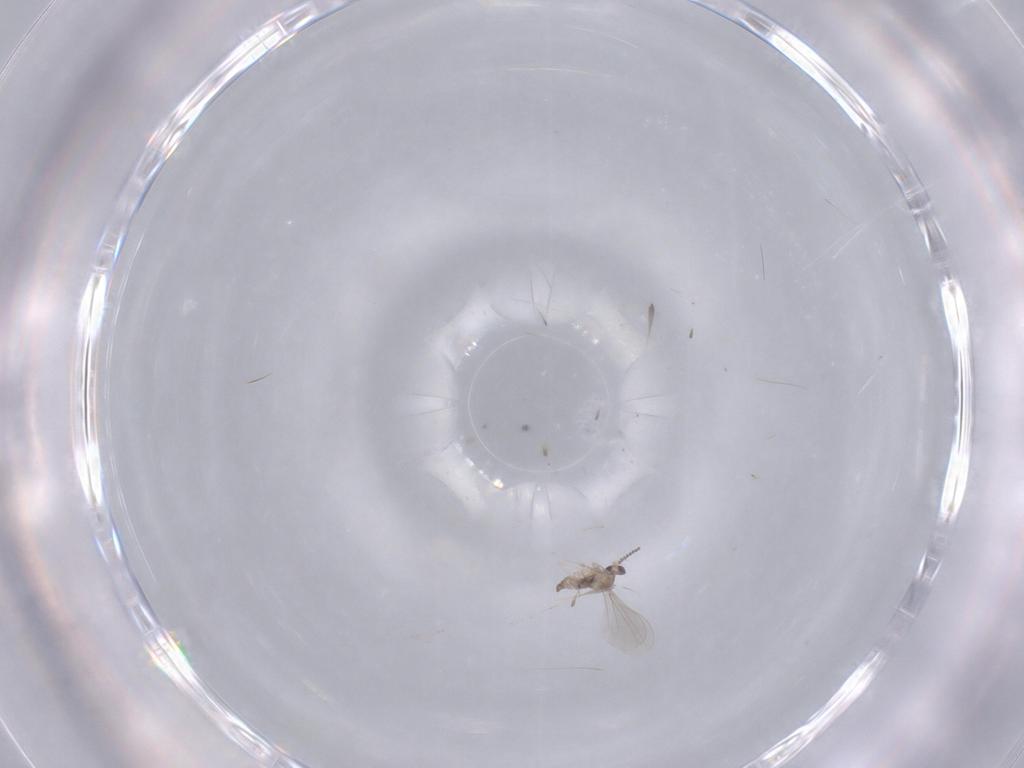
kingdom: Animalia
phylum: Arthropoda
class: Insecta
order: Diptera
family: Cecidomyiidae
